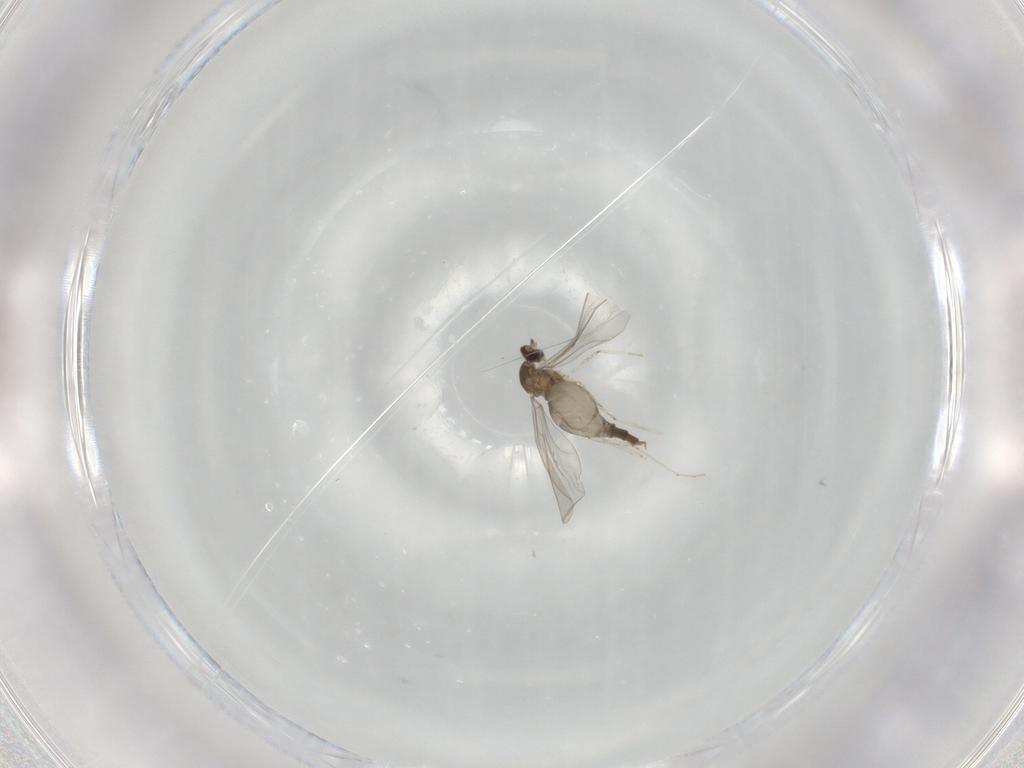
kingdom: Animalia
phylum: Arthropoda
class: Insecta
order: Diptera
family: Cecidomyiidae
